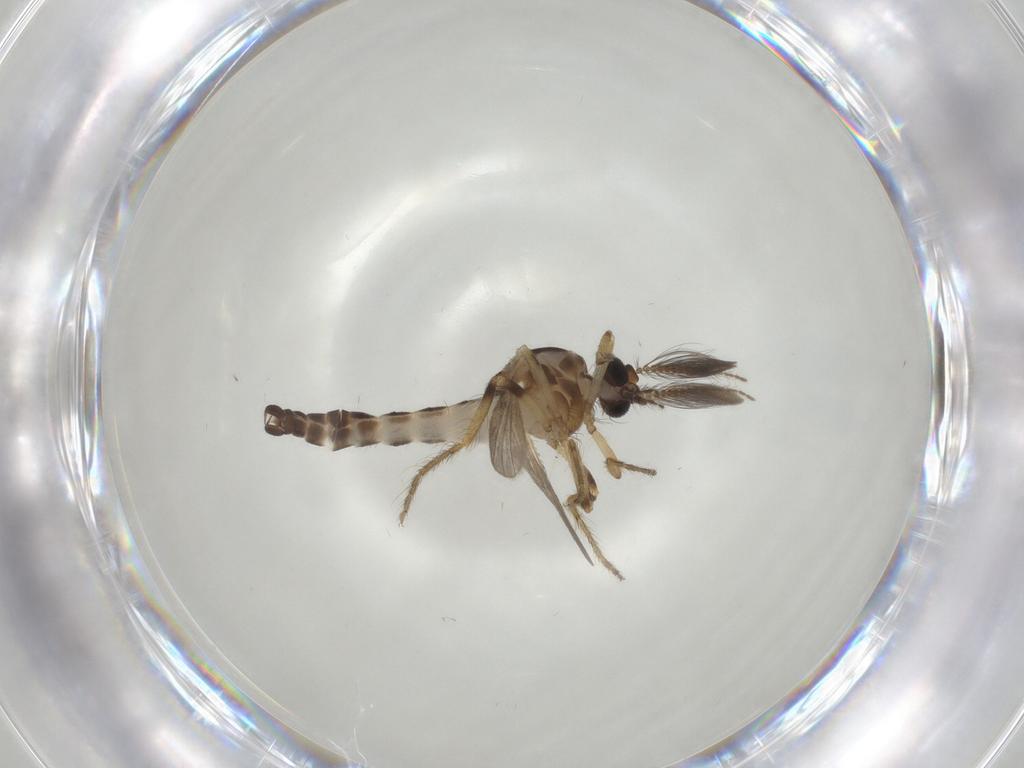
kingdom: Animalia
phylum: Arthropoda
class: Insecta
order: Diptera
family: Ceratopogonidae
